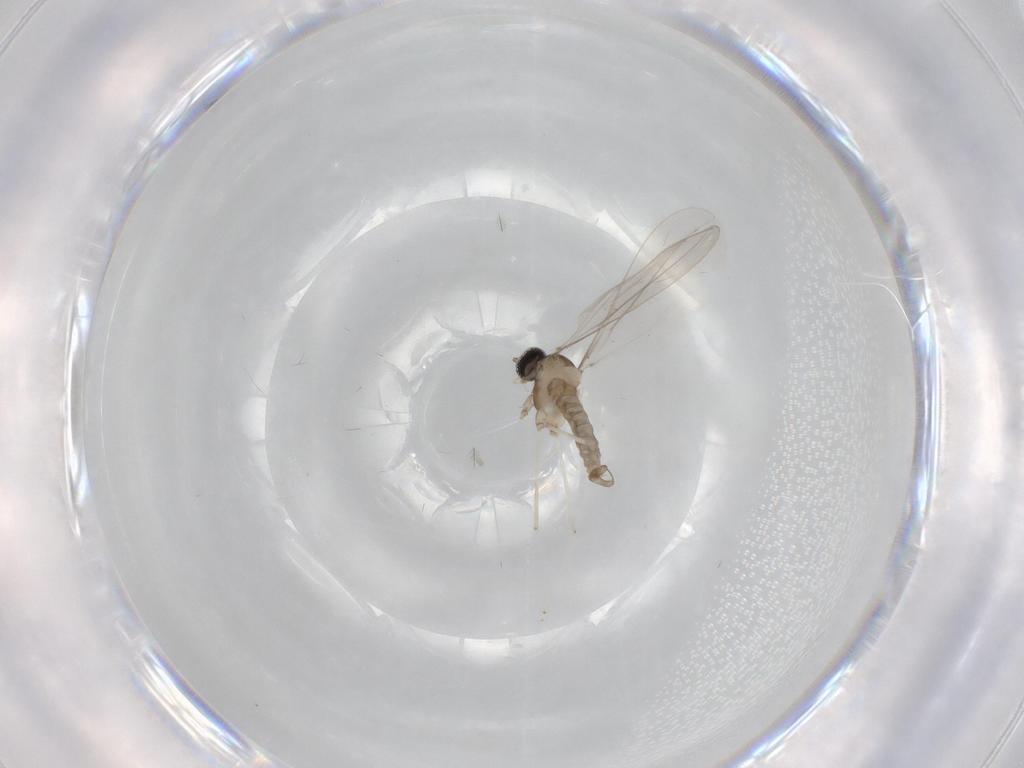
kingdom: Animalia
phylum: Arthropoda
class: Insecta
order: Diptera
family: Cecidomyiidae
